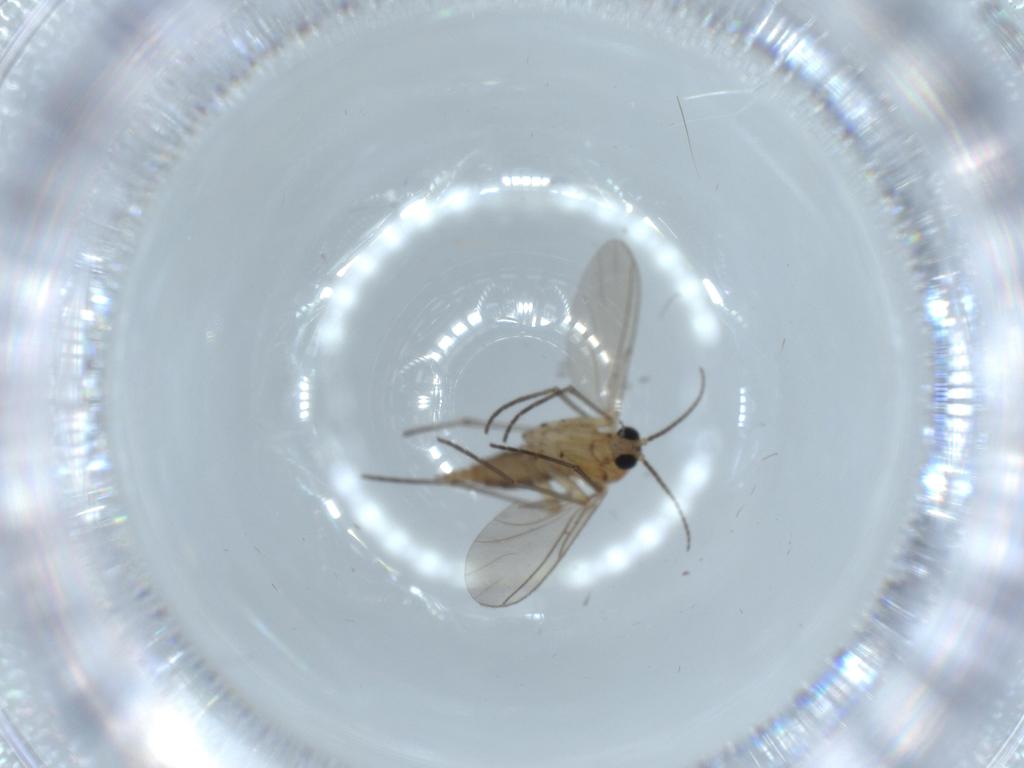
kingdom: Animalia
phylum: Arthropoda
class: Insecta
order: Diptera
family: Sciaridae
